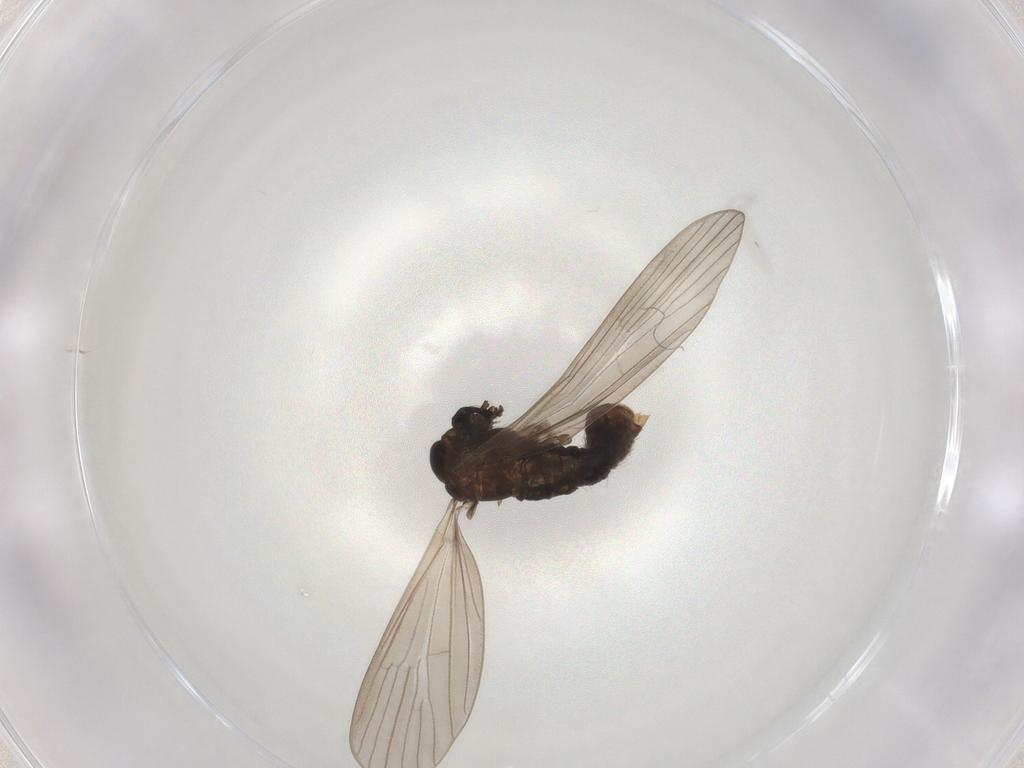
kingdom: Animalia
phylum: Arthropoda
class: Insecta
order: Diptera
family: Limoniidae
